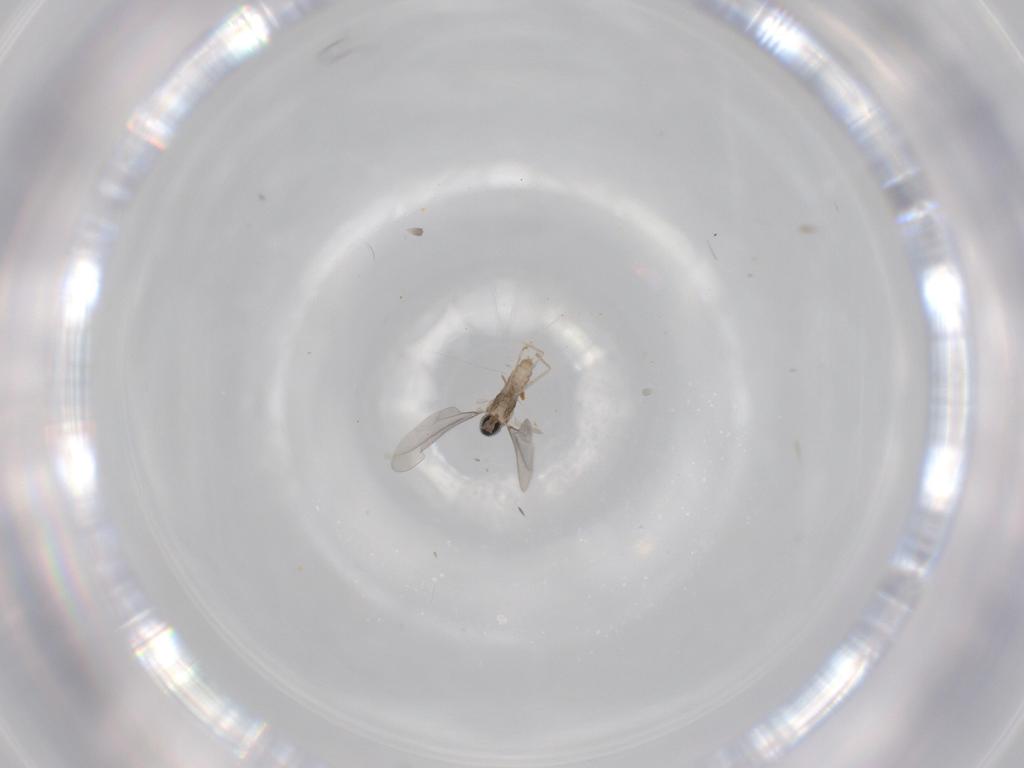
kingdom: Animalia
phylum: Arthropoda
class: Insecta
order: Diptera
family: Cecidomyiidae
